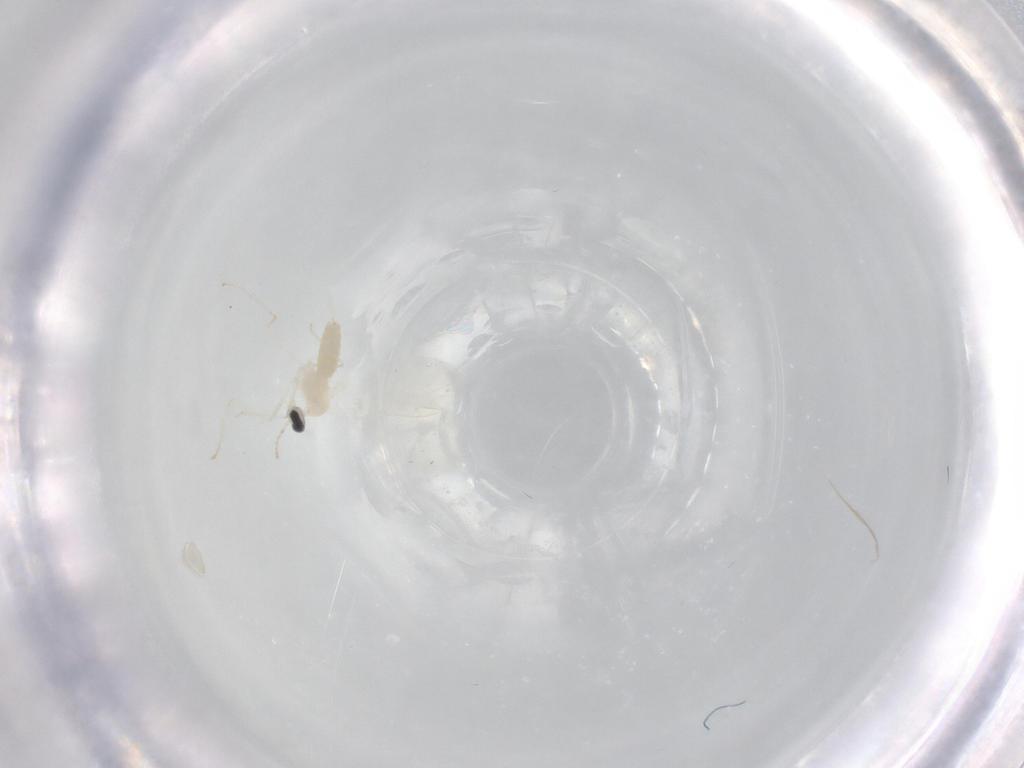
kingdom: Animalia
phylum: Arthropoda
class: Insecta
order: Diptera
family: Cecidomyiidae
